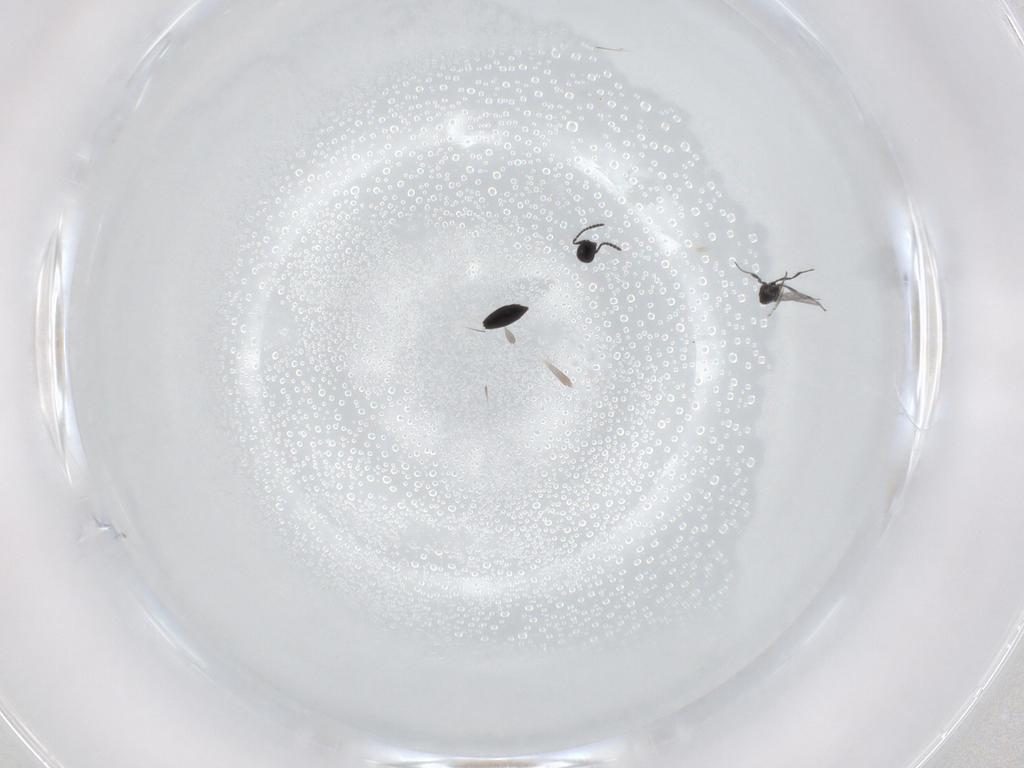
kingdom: Animalia
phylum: Arthropoda
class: Insecta
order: Hymenoptera
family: Scelionidae
